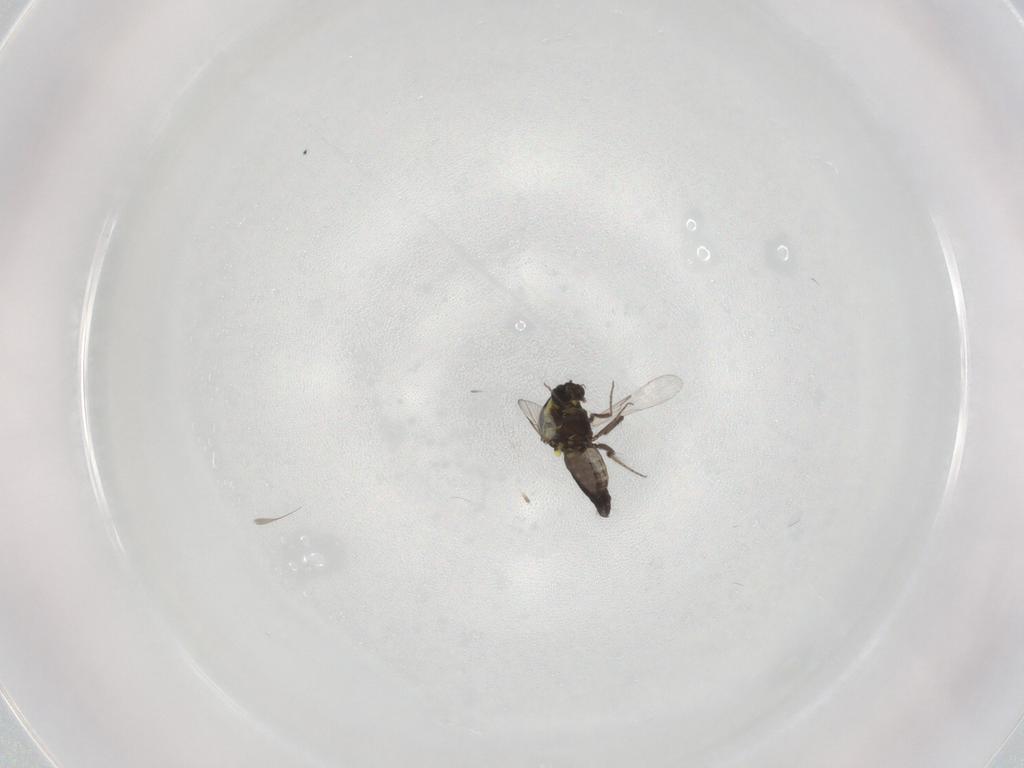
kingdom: Animalia
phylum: Arthropoda
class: Insecta
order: Diptera
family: Ceratopogonidae
